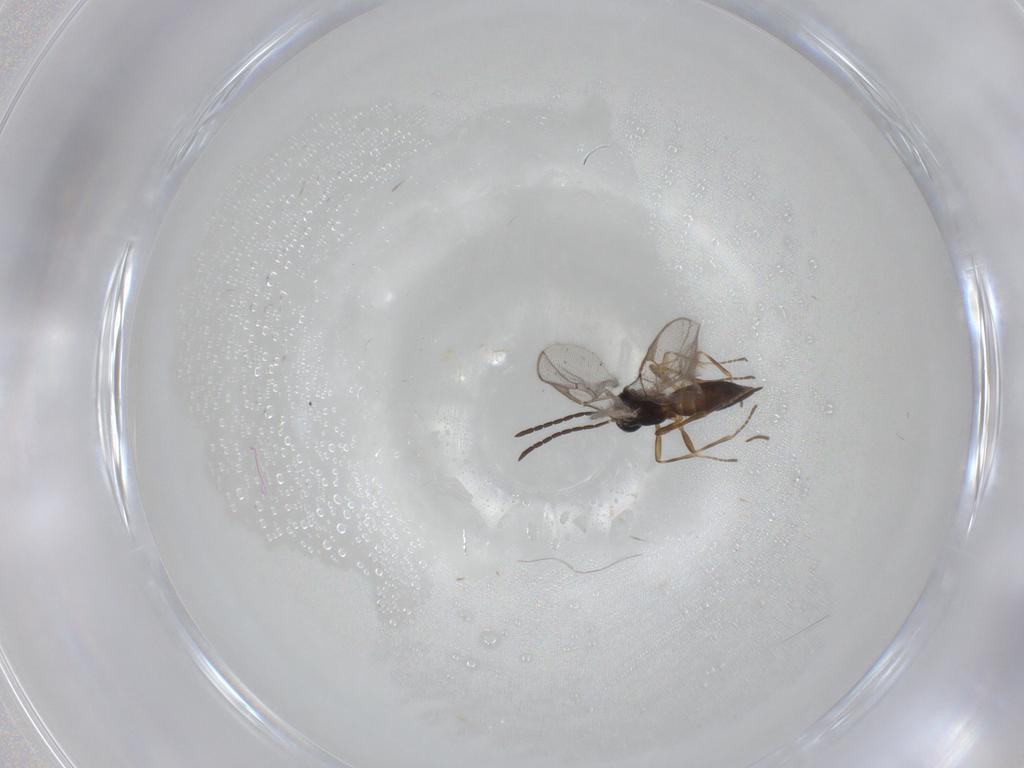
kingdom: Animalia
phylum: Arthropoda
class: Insecta
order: Hymenoptera
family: Braconidae
